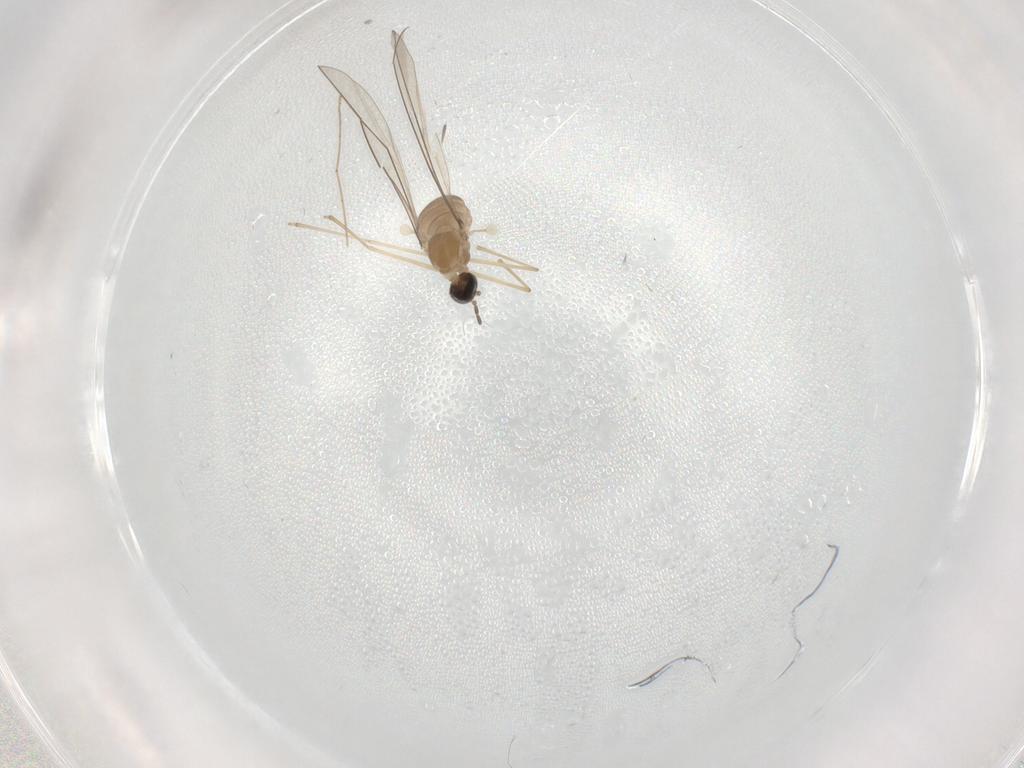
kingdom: Animalia
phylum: Arthropoda
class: Insecta
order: Diptera
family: Cecidomyiidae
